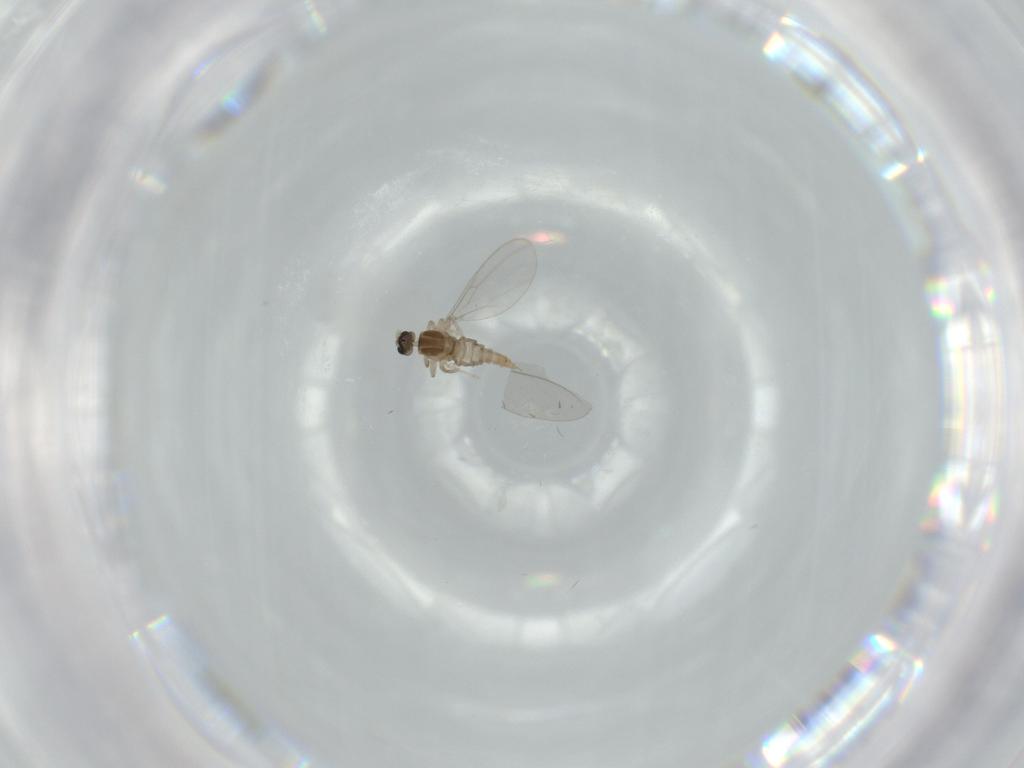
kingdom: Animalia
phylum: Arthropoda
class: Insecta
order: Diptera
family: Cecidomyiidae
